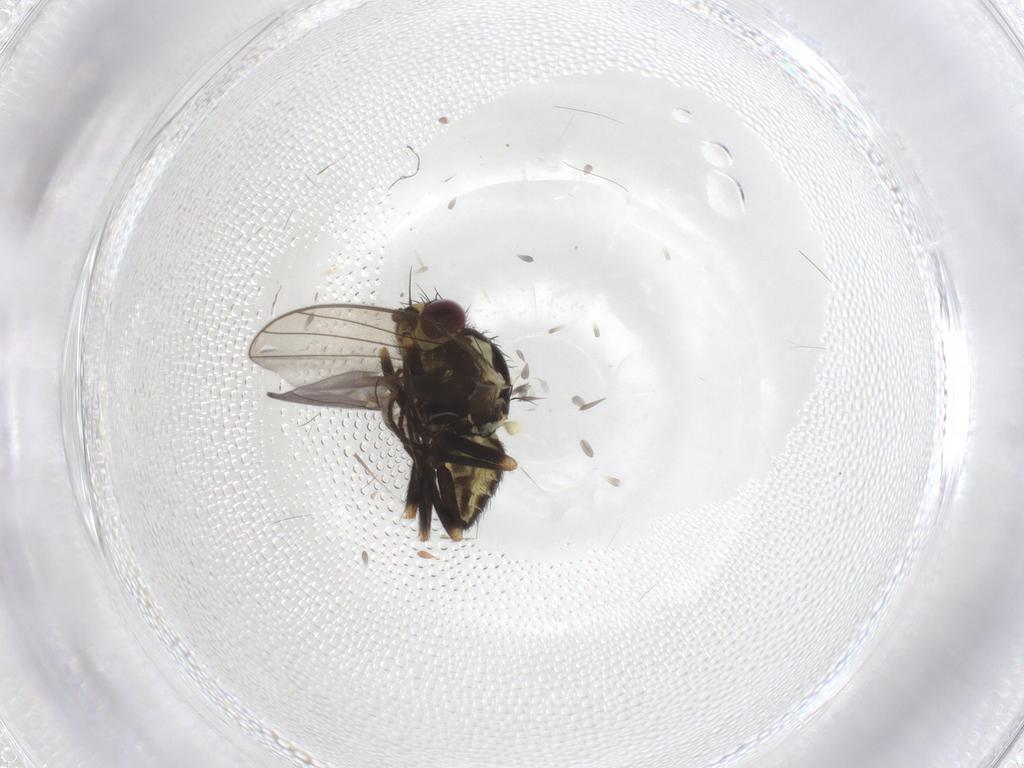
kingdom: Animalia
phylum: Arthropoda
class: Insecta
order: Diptera
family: Agromyzidae
